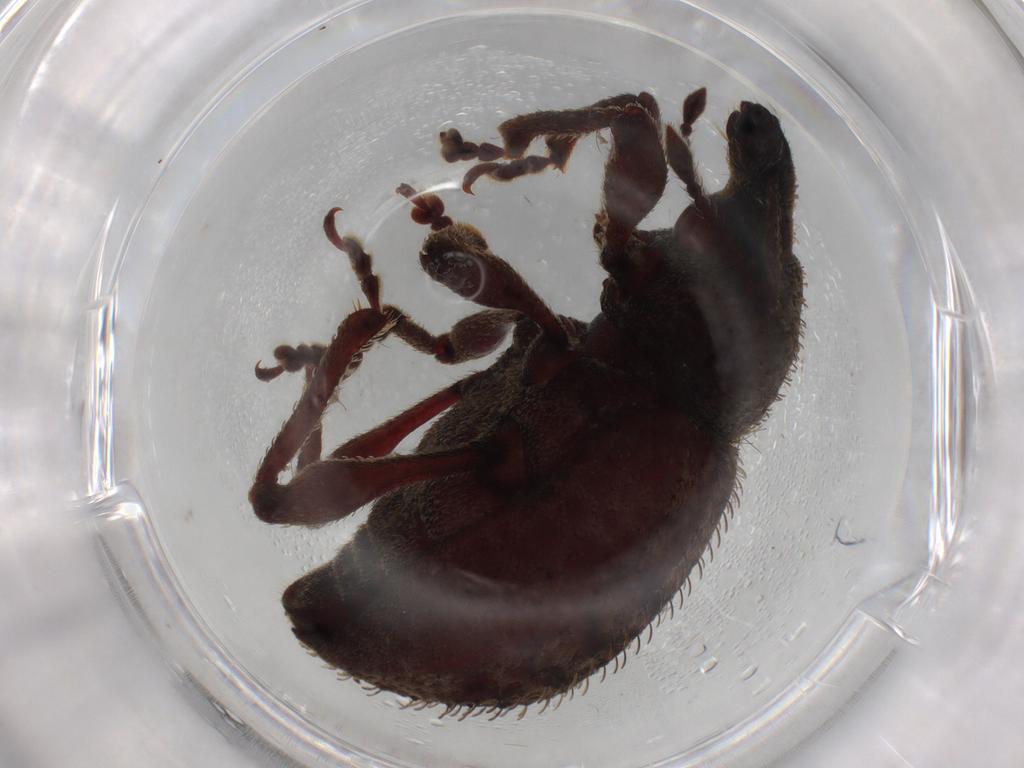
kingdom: Animalia
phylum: Arthropoda
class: Insecta
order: Coleoptera
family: Curculionidae
